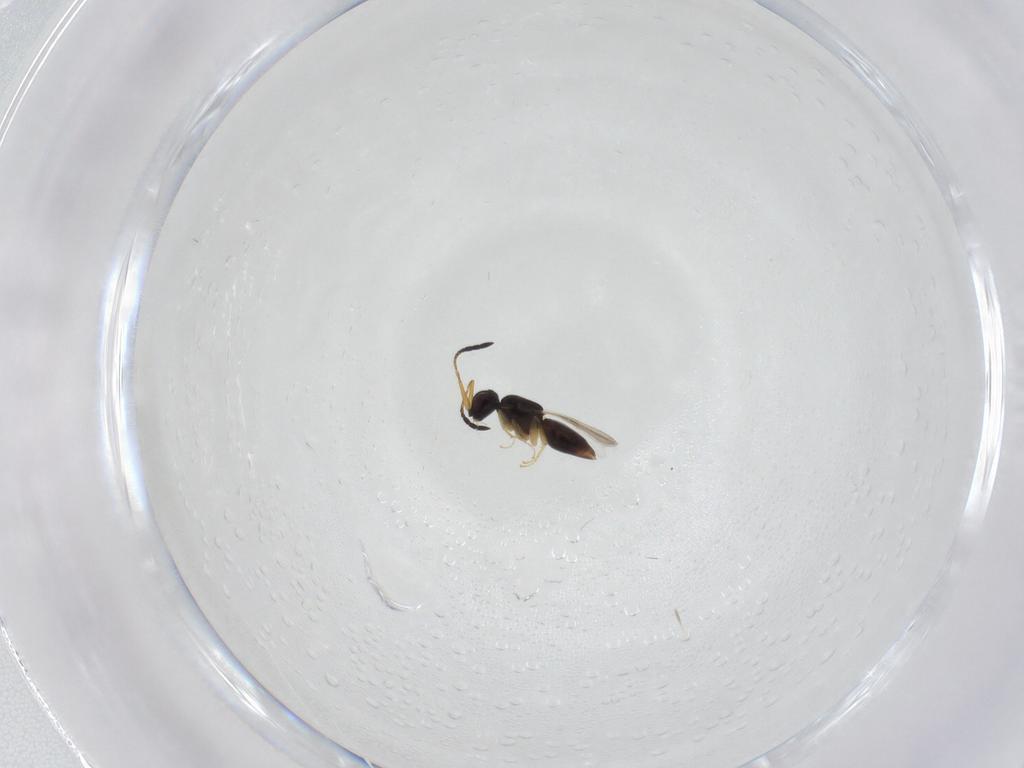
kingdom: Animalia
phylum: Arthropoda
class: Insecta
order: Hymenoptera
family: Ceraphronidae
